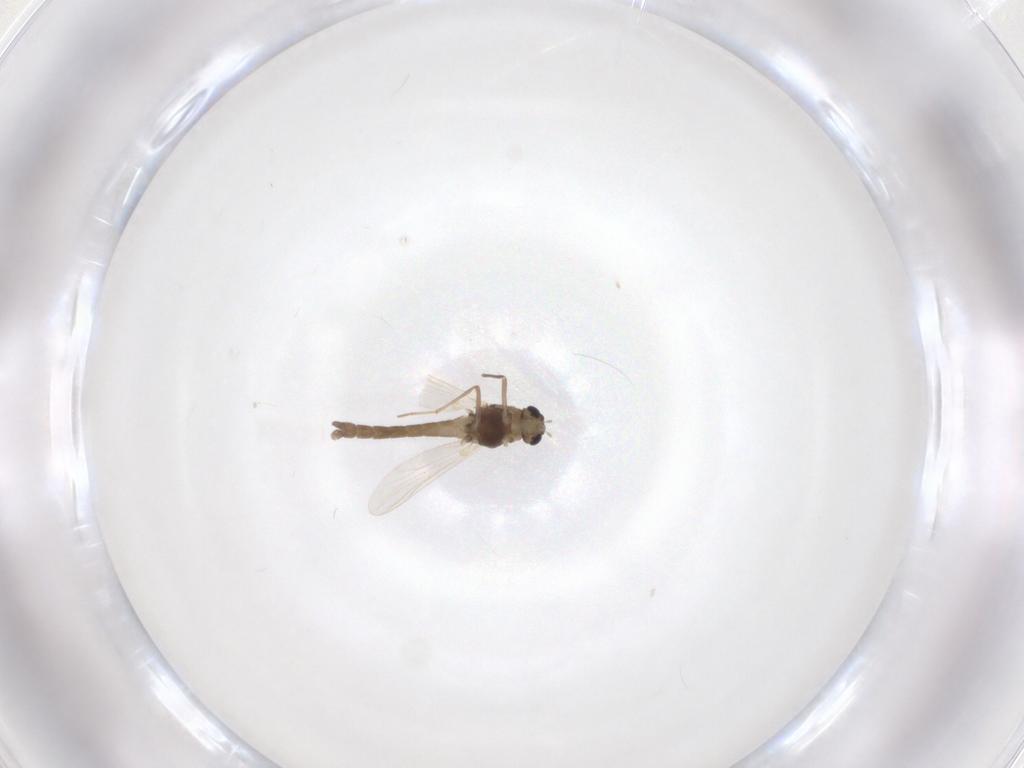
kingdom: Animalia
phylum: Arthropoda
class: Insecta
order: Diptera
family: Chironomidae
